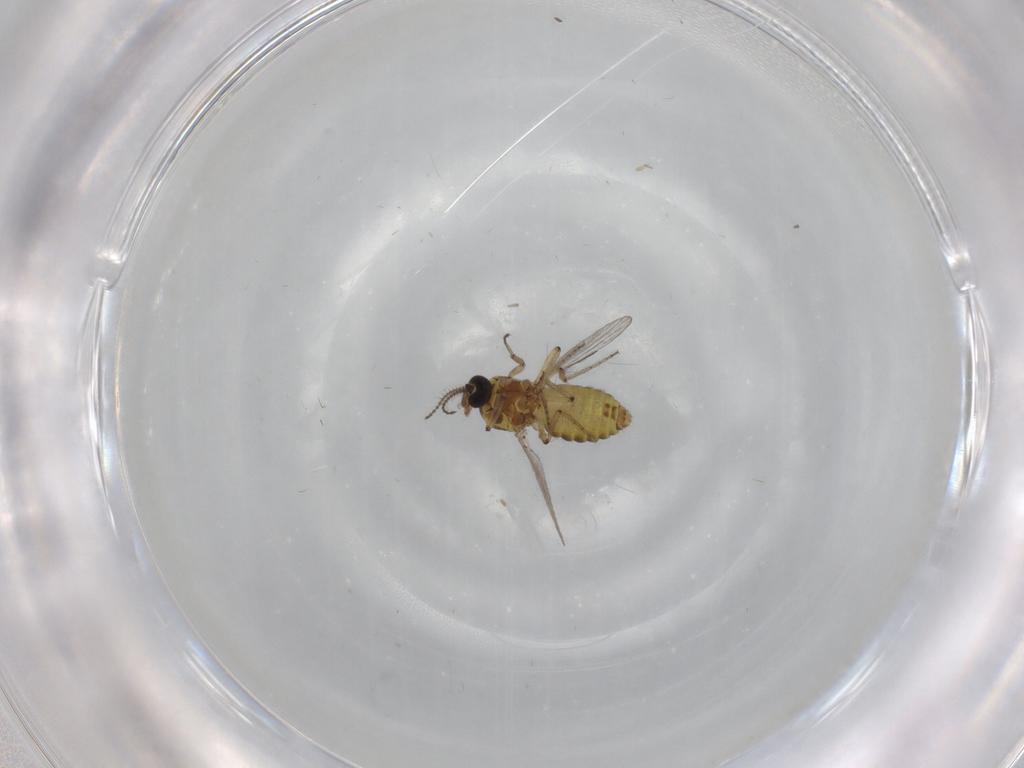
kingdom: Animalia
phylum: Arthropoda
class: Insecta
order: Diptera
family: Ceratopogonidae
